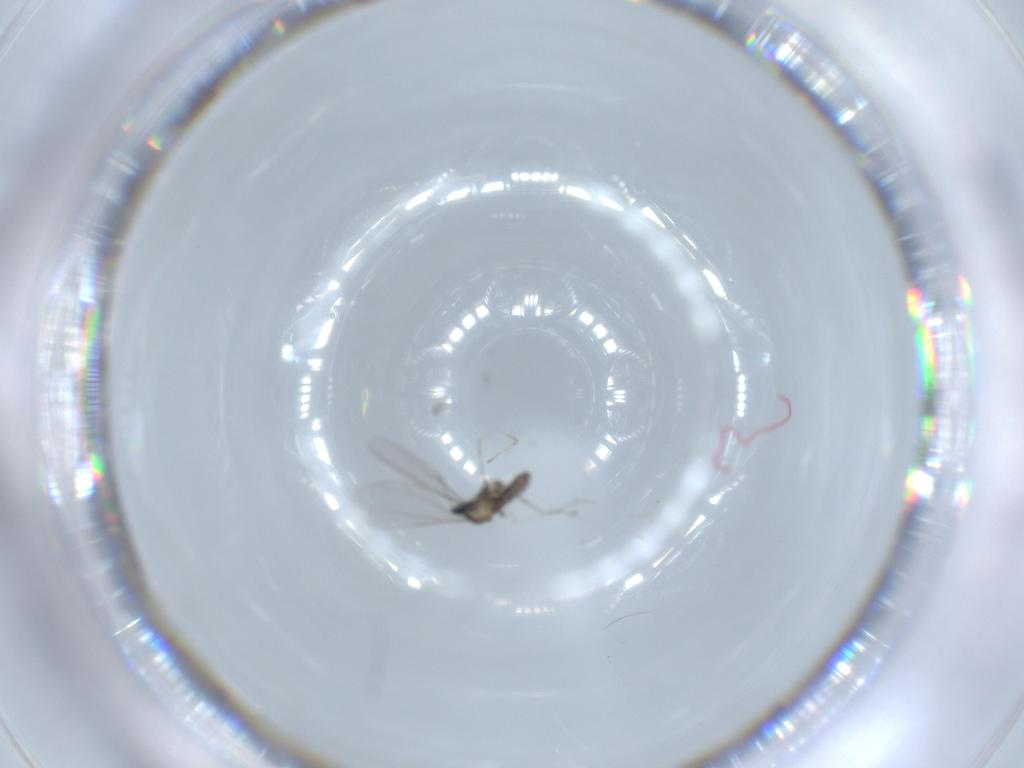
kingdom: Animalia
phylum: Arthropoda
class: Insecta
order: Diptera
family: Cecidomyiidae
